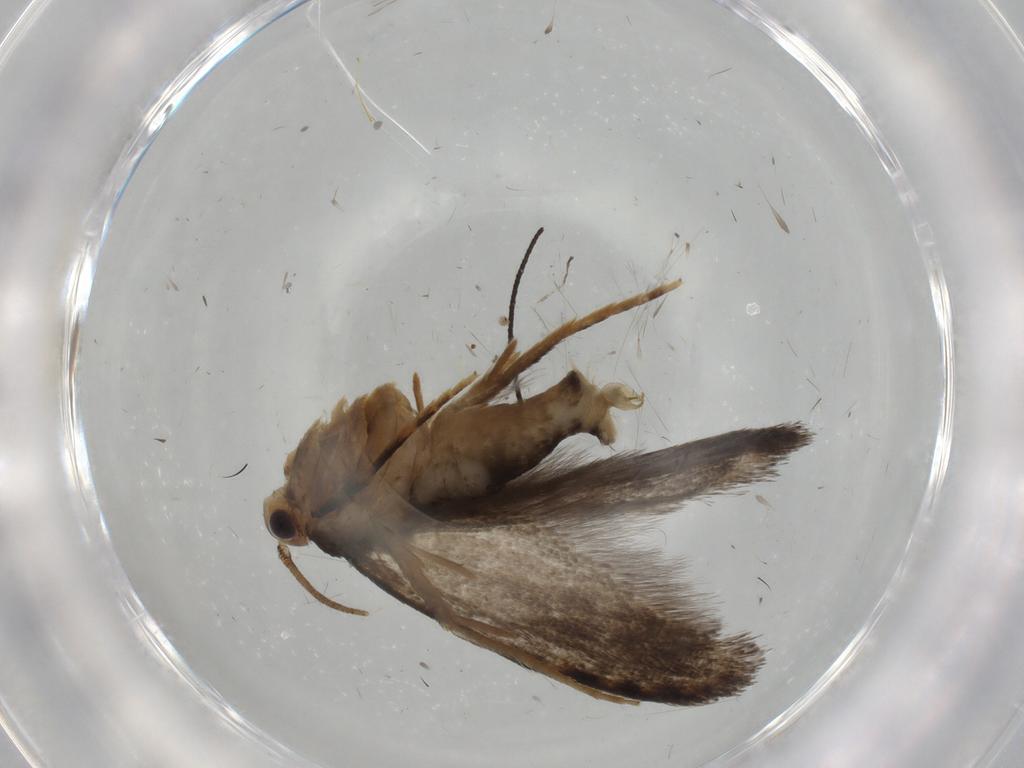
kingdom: Animalia
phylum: Arthropoda
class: Insecta
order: Lepidoptera
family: Tineidae
